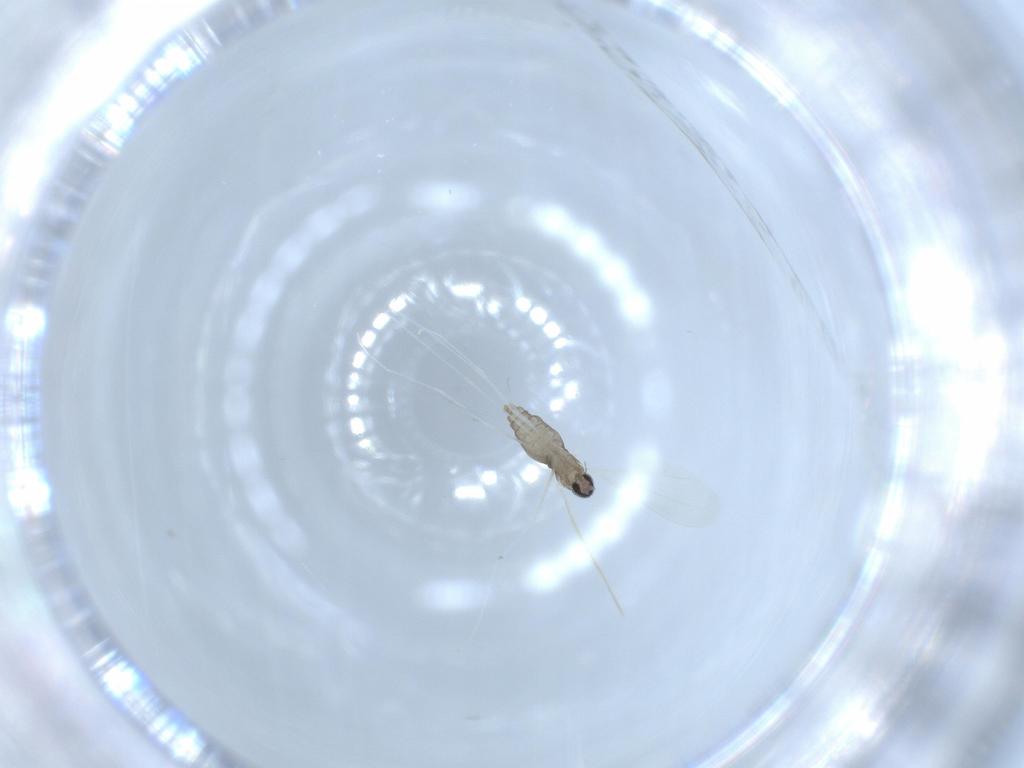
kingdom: Animalia
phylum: Arthropoda
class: Insecta
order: Diptera
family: Cecidomyiidae
